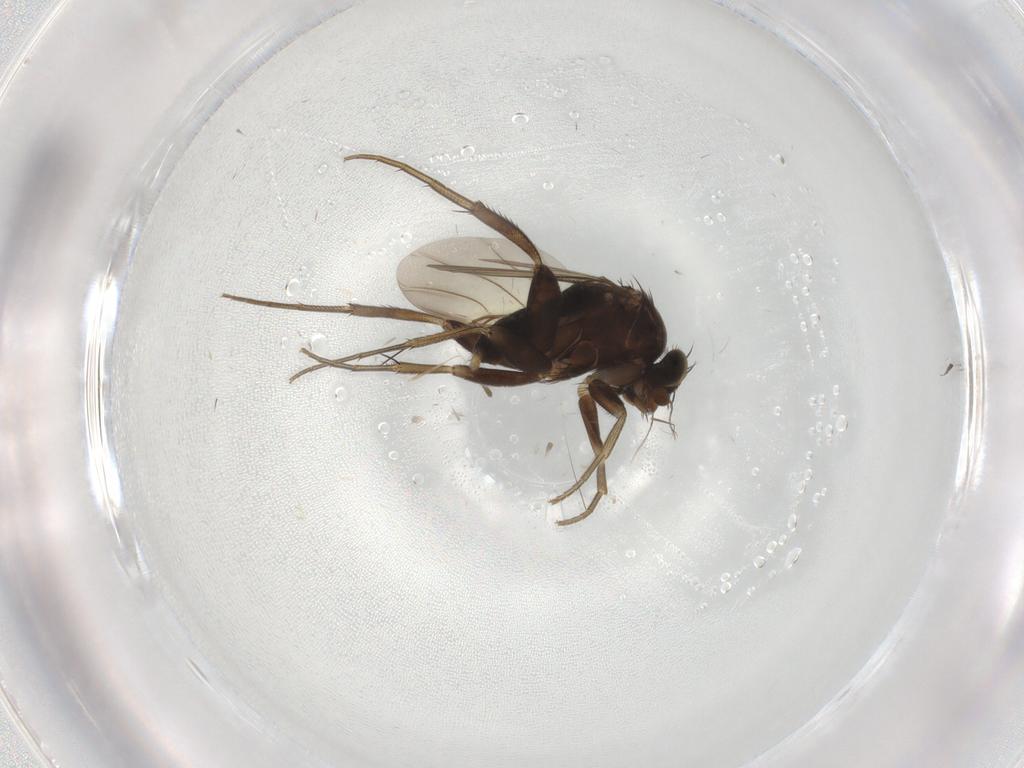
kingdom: Animalia
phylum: Arthropoda
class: Insecta
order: Diptera
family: Phoridae
